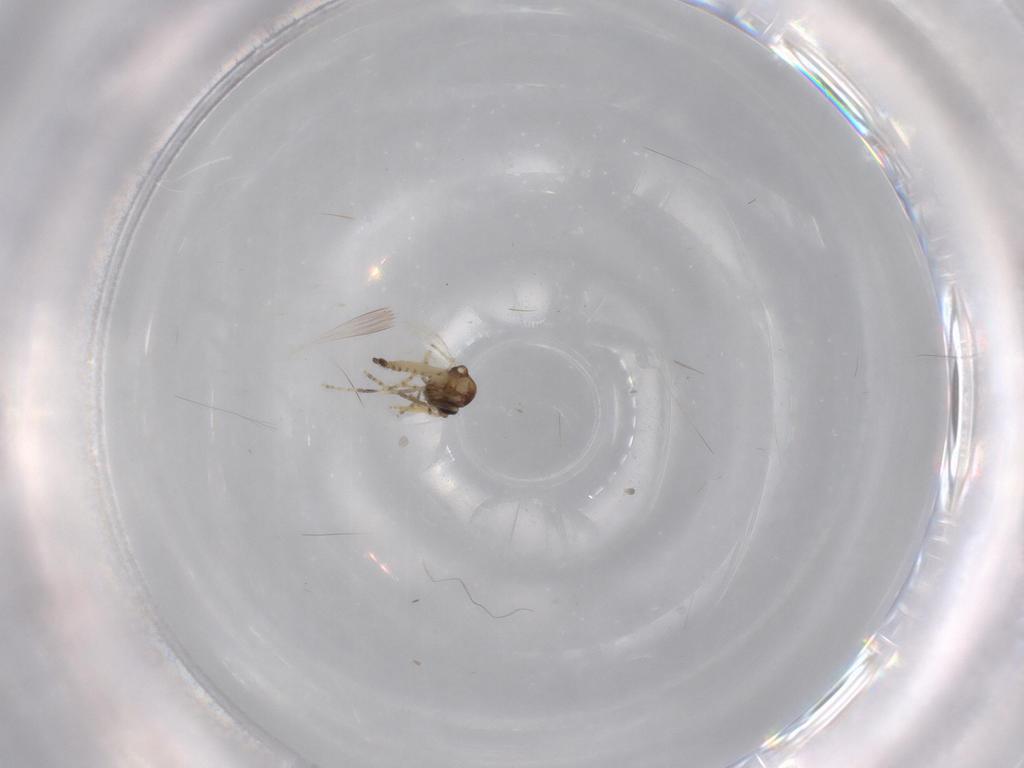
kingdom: Animalia
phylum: Arthropoda
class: Insecta
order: Diptera
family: Ceratopogonidae
